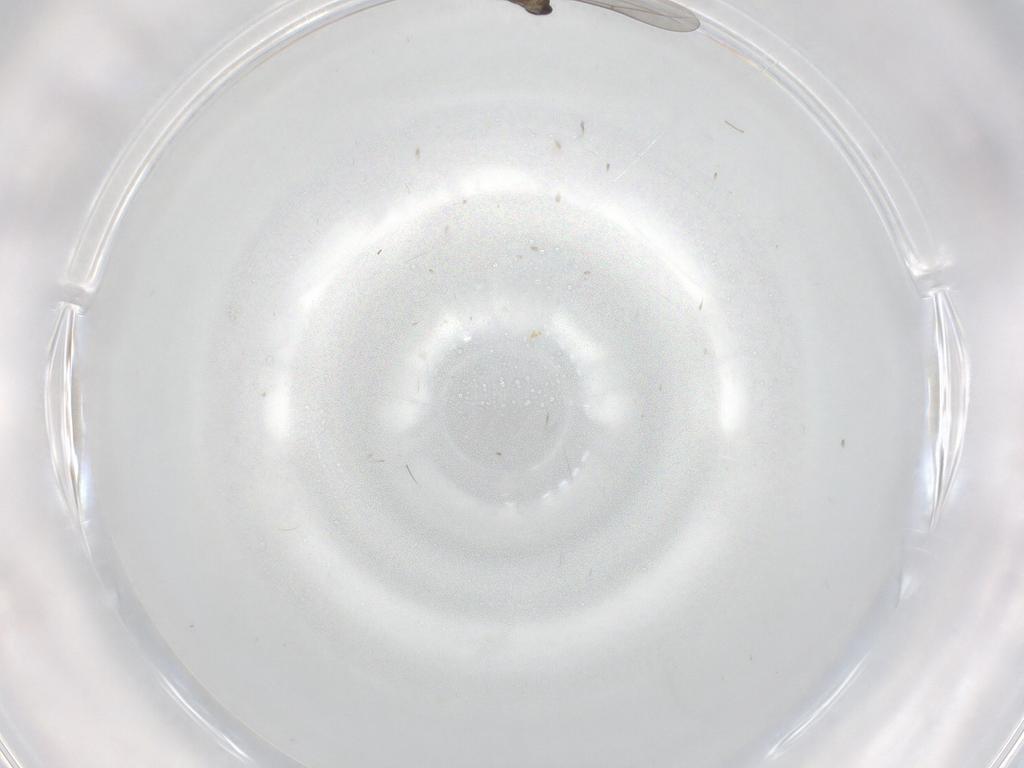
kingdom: Animalia
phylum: Arthropoda
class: Insecta
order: Diptera
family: Cecidomyiidae
